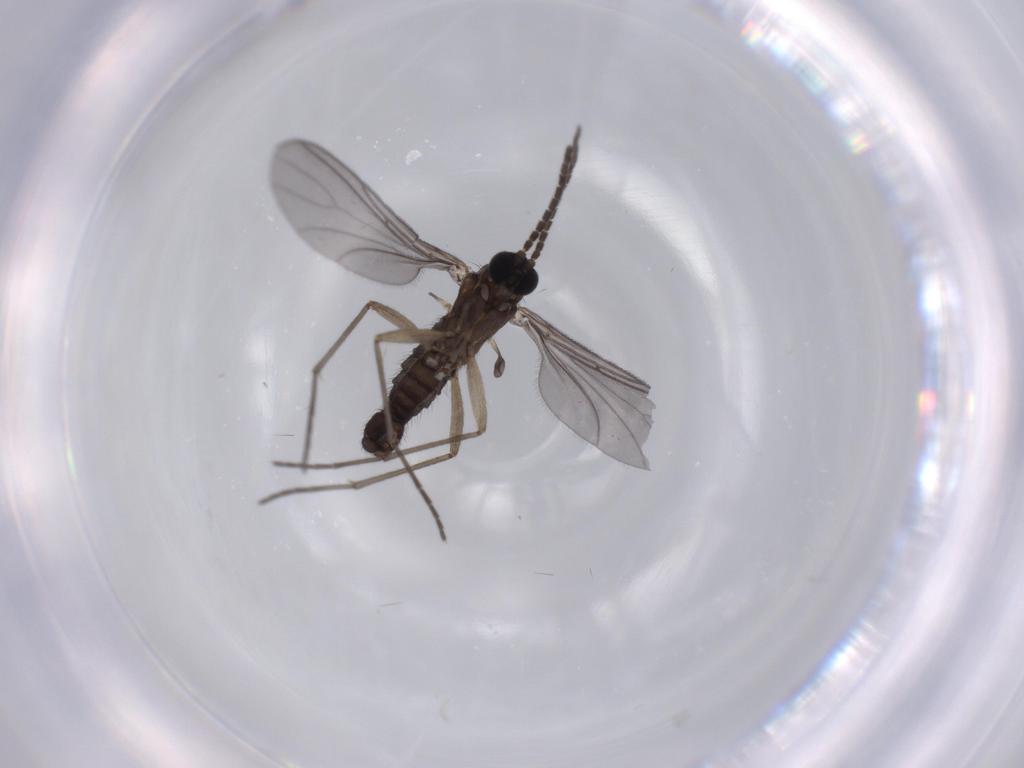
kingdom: Animalia
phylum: Arthropoda
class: Insecta
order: Diptera
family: Sciaridae
